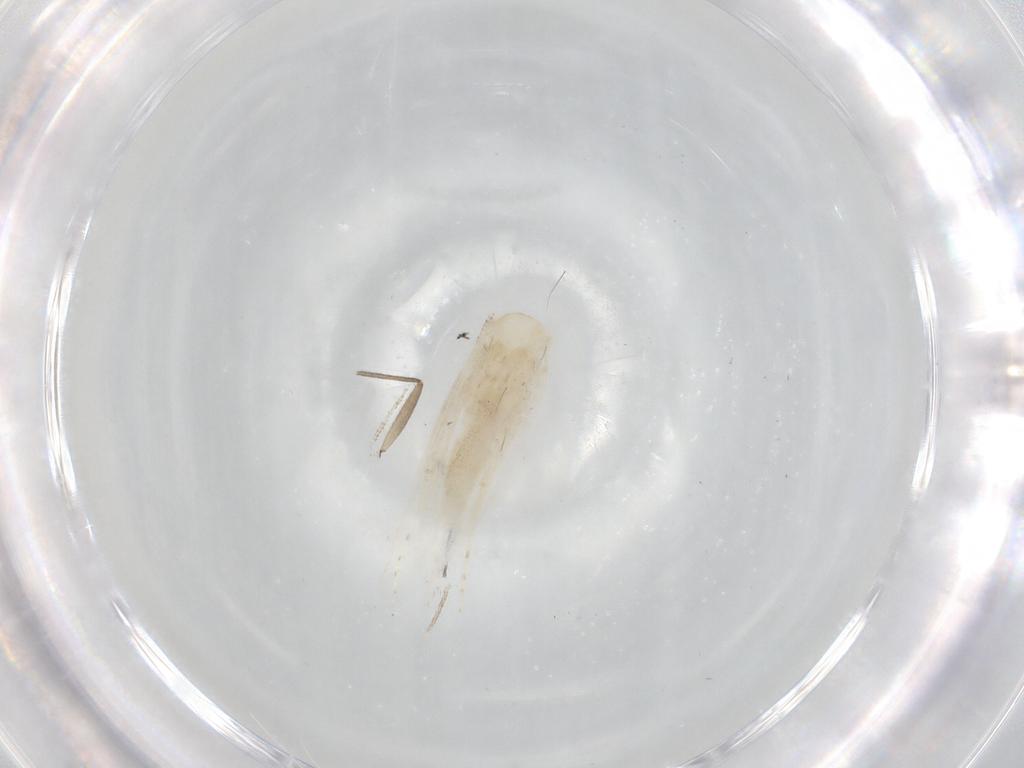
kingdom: Animalia
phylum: Arthropoda
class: Insecta
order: Lepidoptera
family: Lyonetiidae
